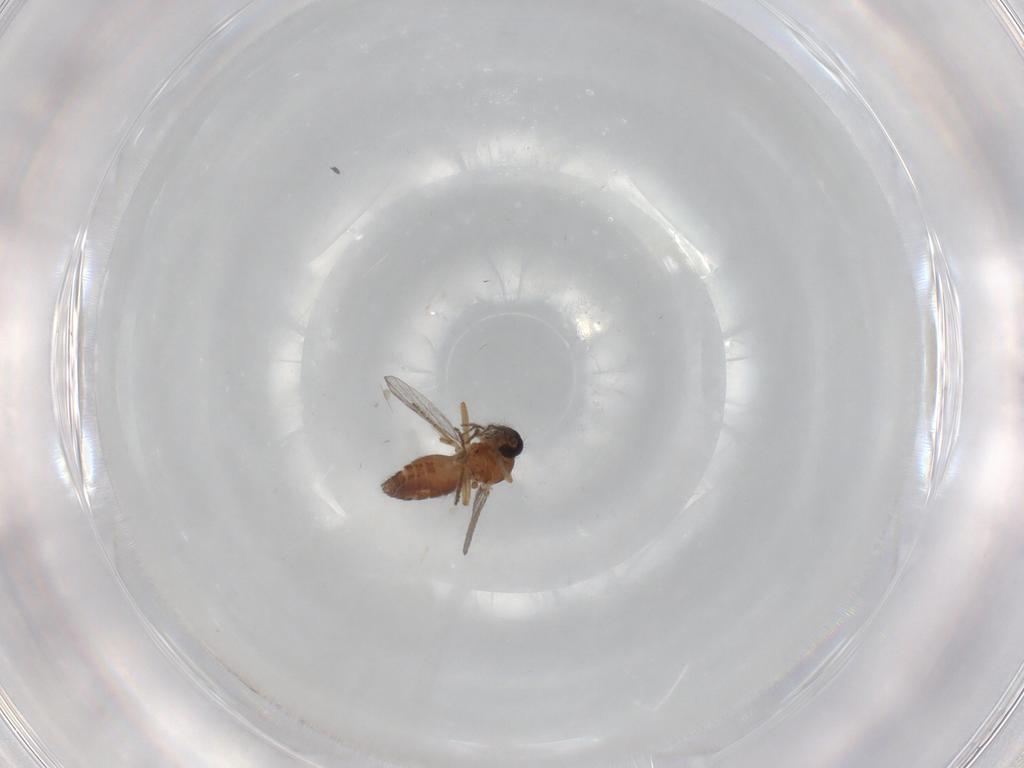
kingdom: Animalia
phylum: Arthropoda
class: Insecta
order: Diptera
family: Ceratopogonidae
